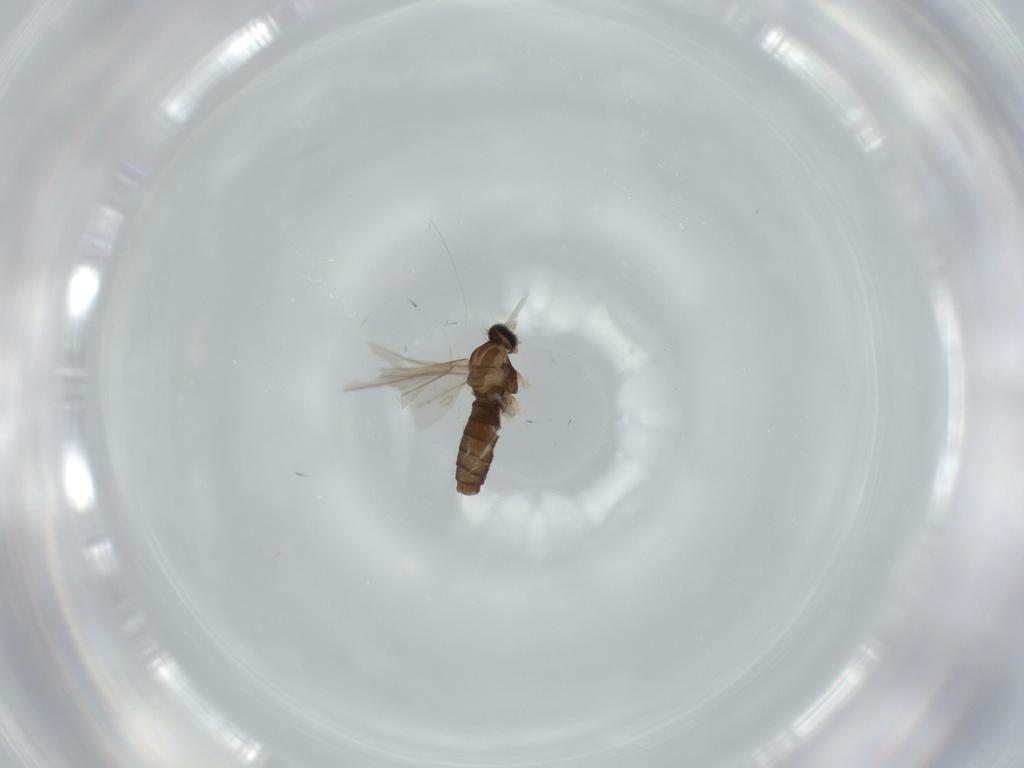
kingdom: Animalia
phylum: Arthropoda
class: Insecta
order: Diptera
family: Cecidomyiidae
